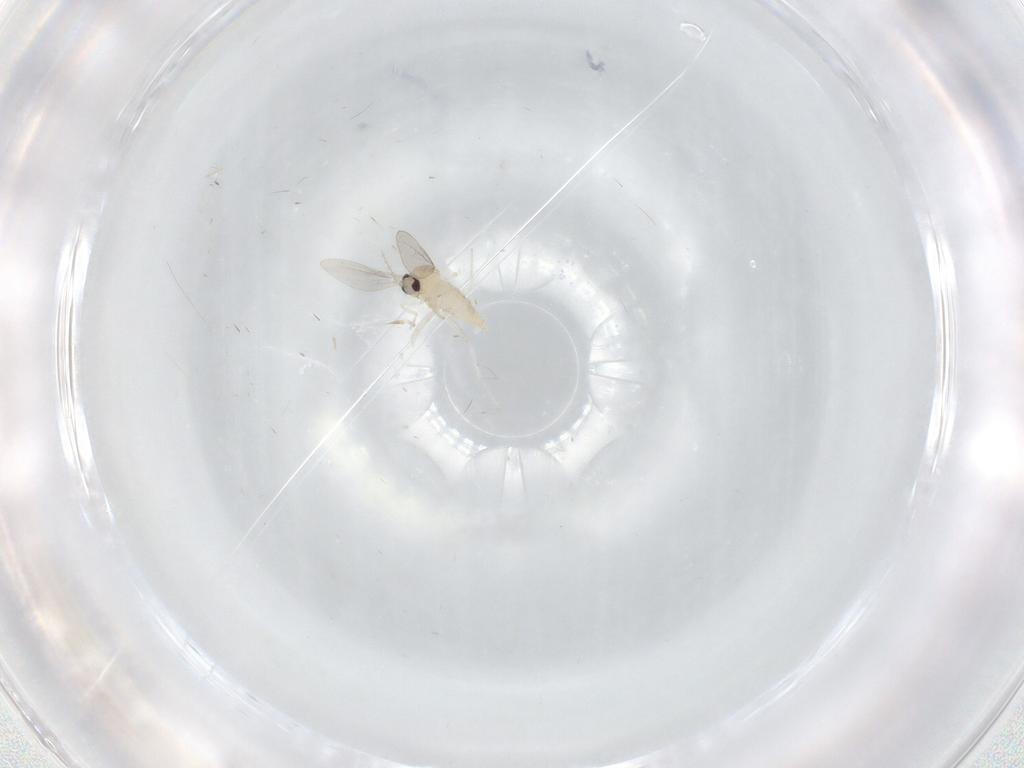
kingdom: Animalia
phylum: Arthropoda
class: Insecta
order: Diptera
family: Cecidomyiidae
